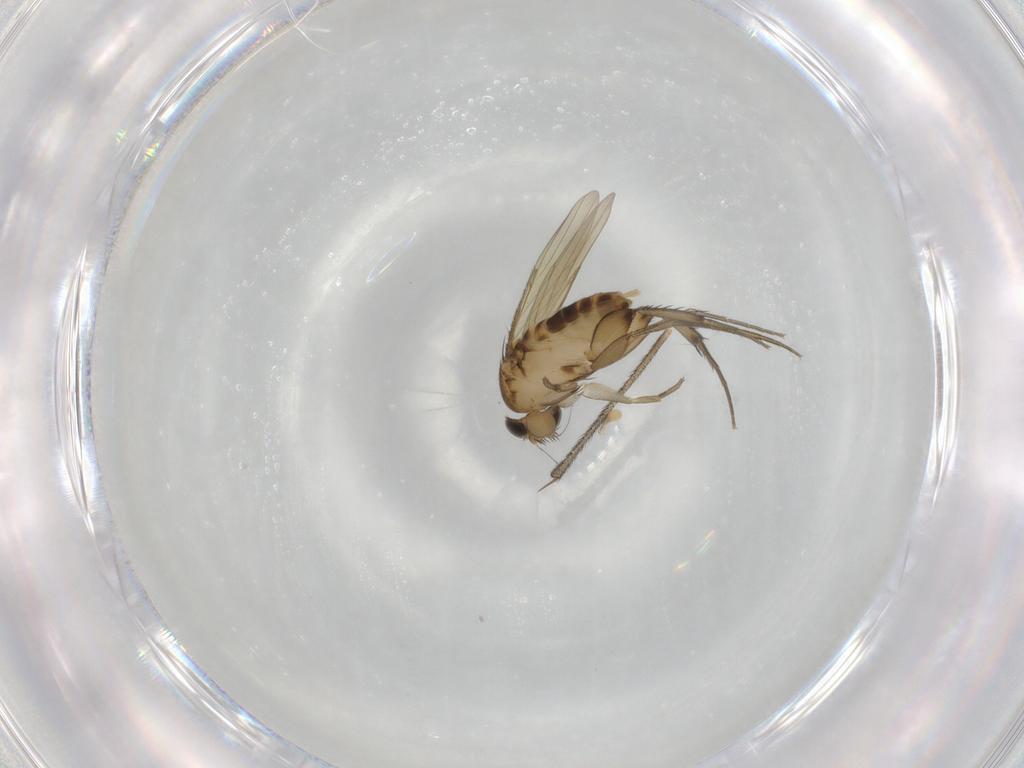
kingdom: Animalia
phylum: Arthropoda
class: Insecta
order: Diptera
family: Phoridae
